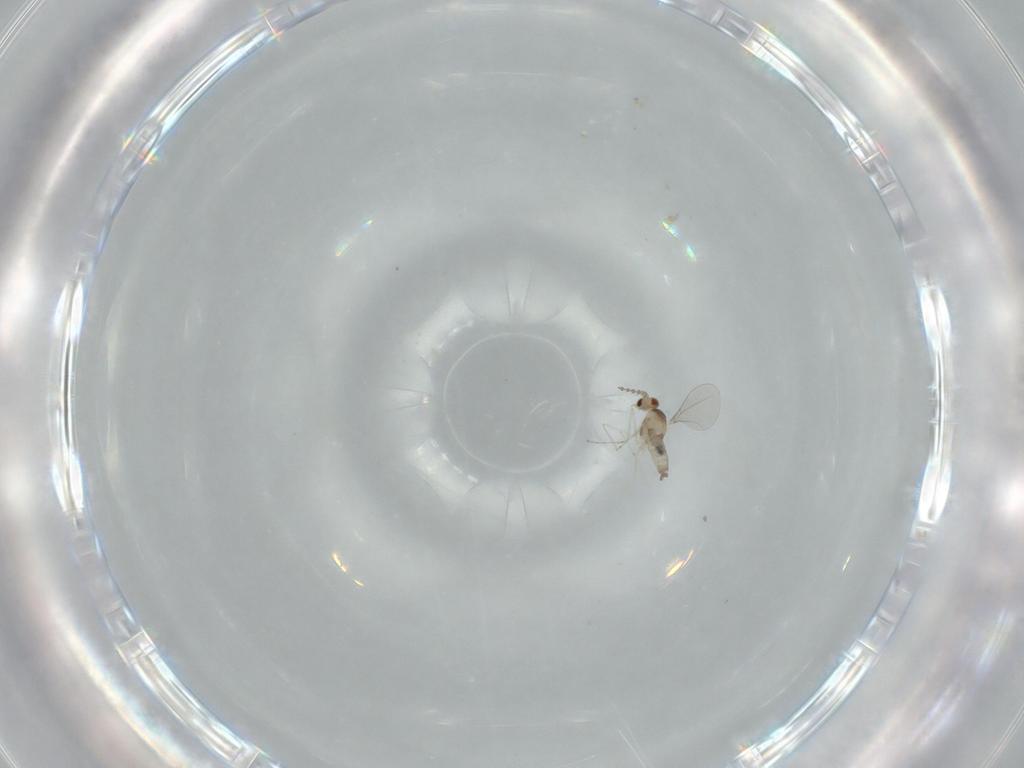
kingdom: Animalia
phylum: Arthropoda
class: Insecta
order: Diptera
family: Cecidomyiidae
